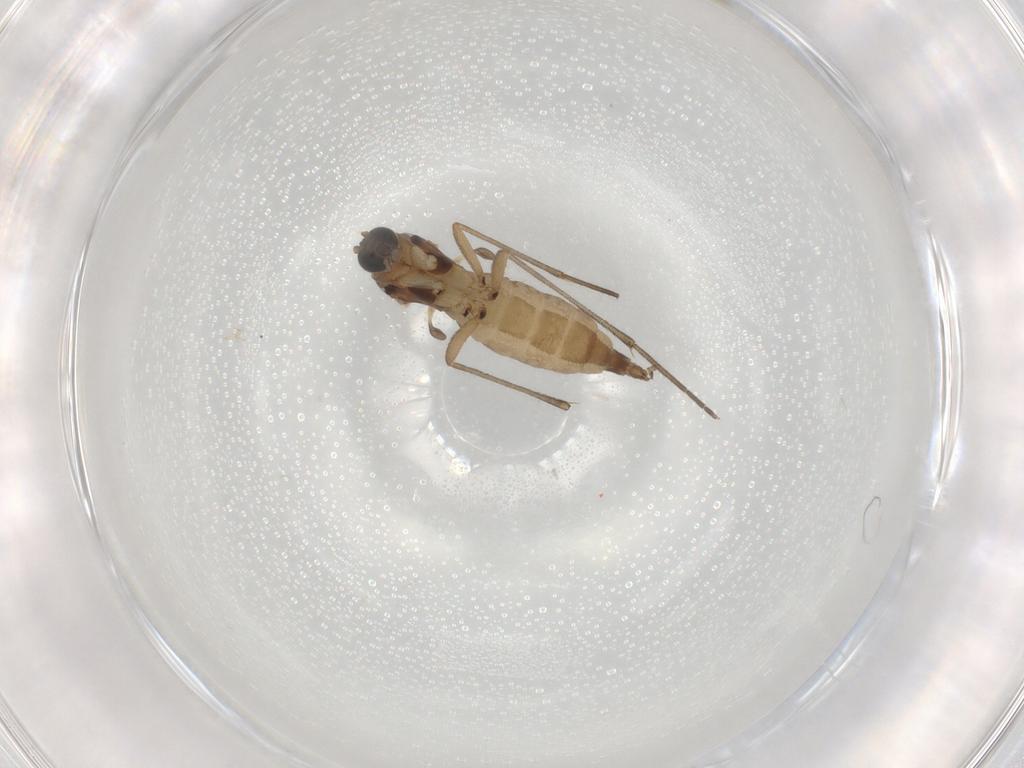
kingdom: Animalia
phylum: Arthropoda
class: Insecta
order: Diptera
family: Sciaridae
